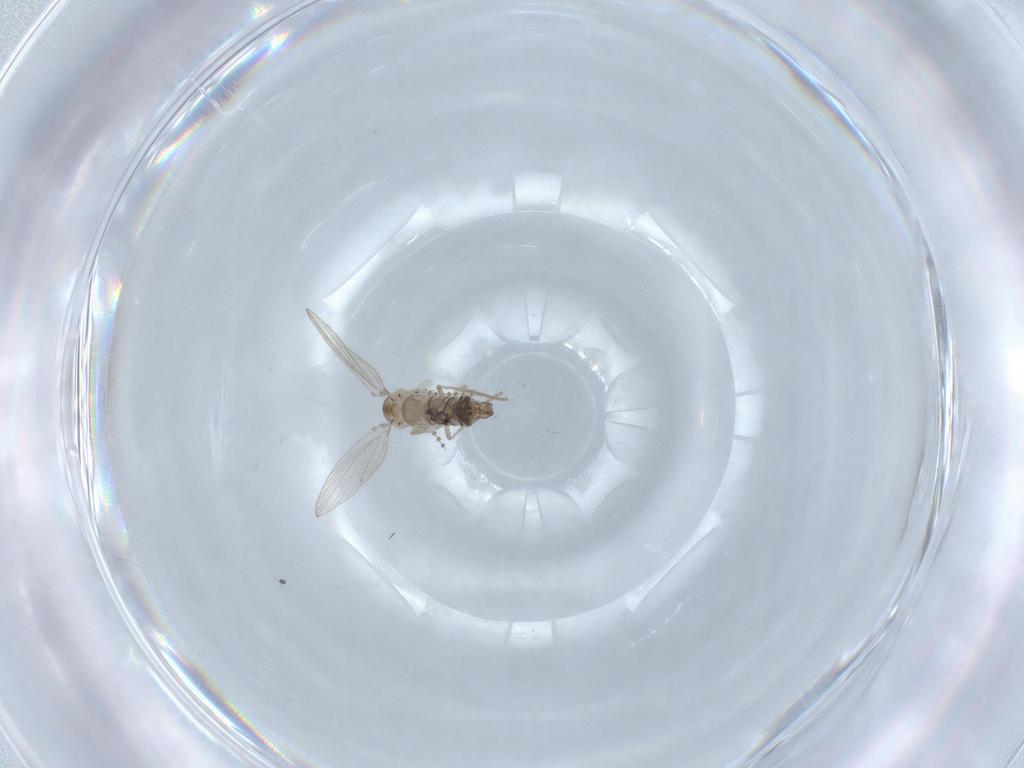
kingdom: Animalia
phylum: Arthropoda
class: Insecta
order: Diptera
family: Psychodidae
